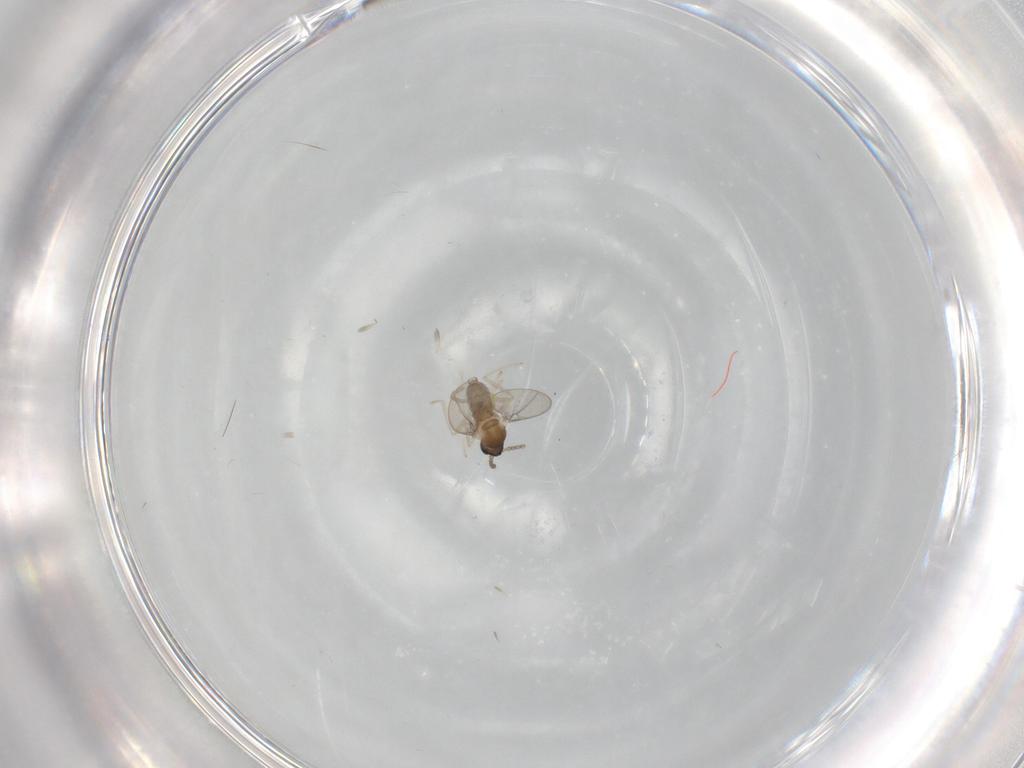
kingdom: Animalia
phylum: Arthropoda
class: Insecta
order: Diptera
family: Cecidomyiidae
